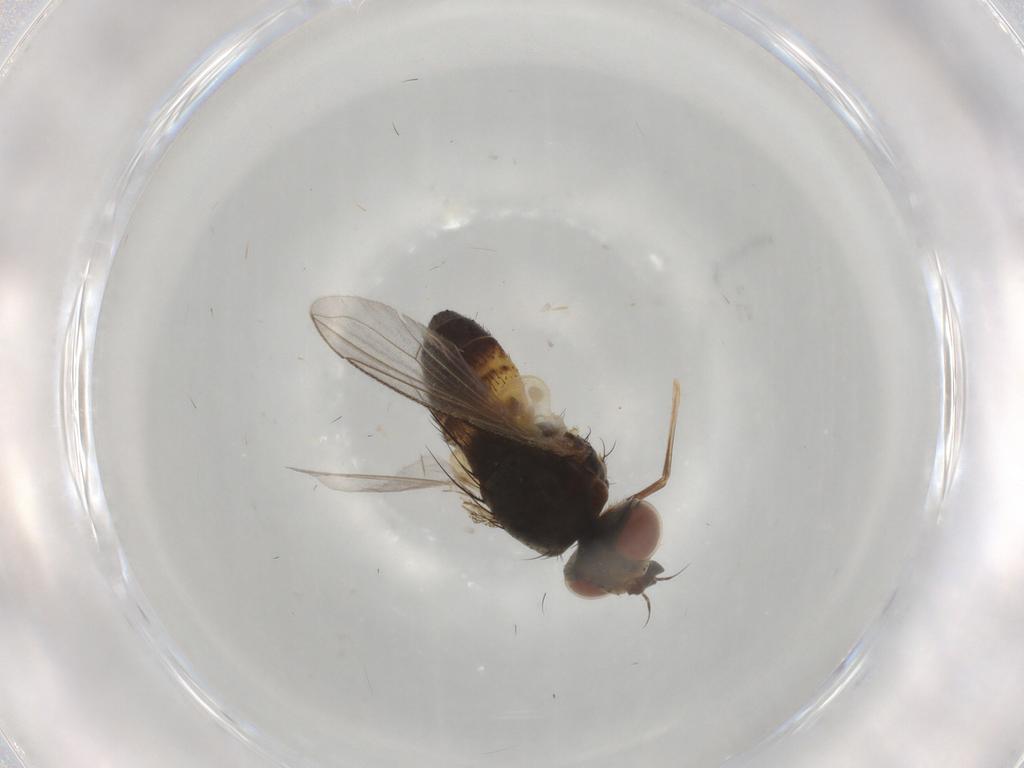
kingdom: Animalia
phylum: Arthropoda
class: Insecta
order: Diptera
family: Tachinidae
